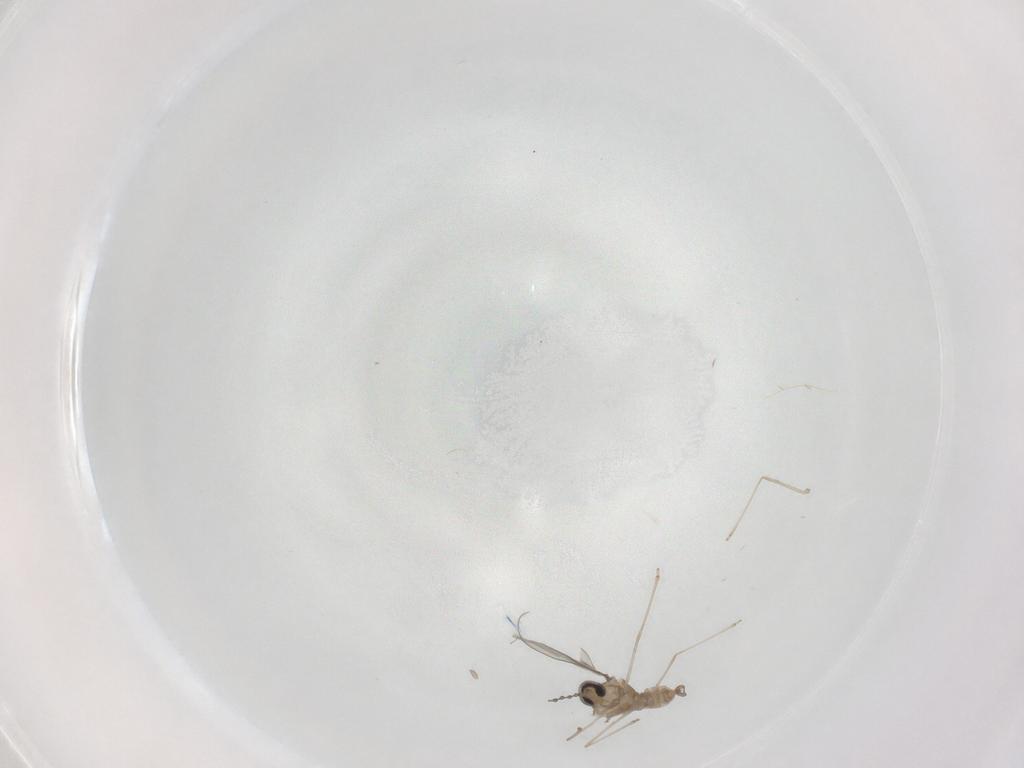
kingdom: Animalia
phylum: Arthropoda
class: Insecta
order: Diptera
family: Cecidomyiidae
